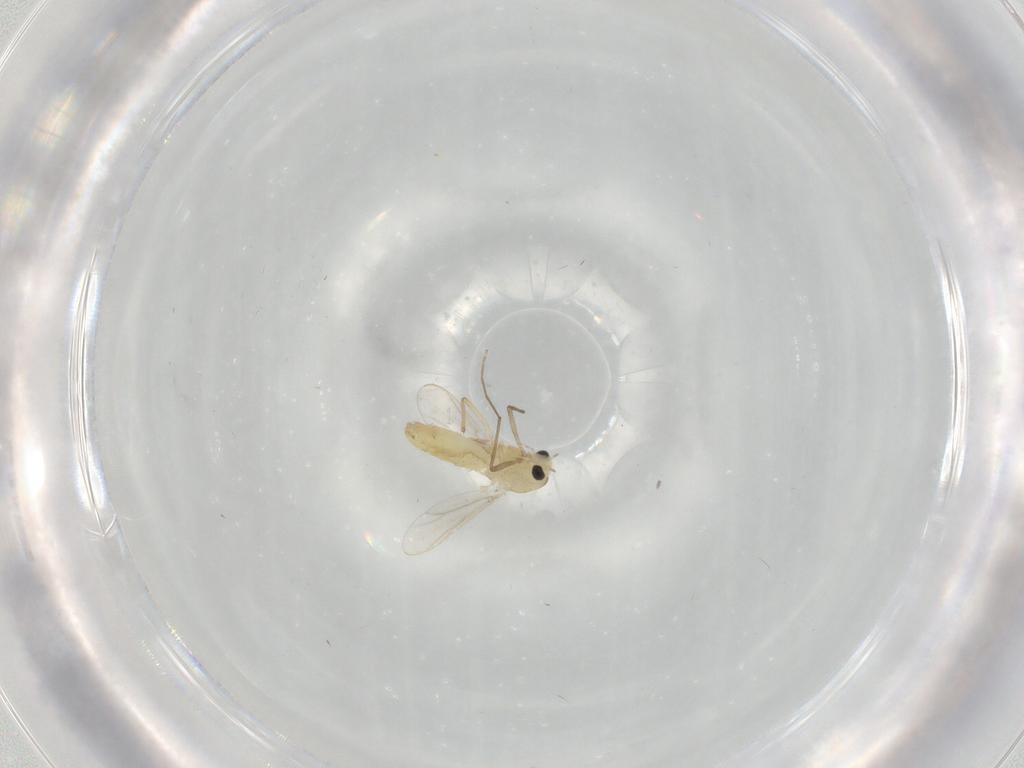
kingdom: Animalia
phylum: Arthropoda
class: Insecta
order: Diptera
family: Chironomidae
